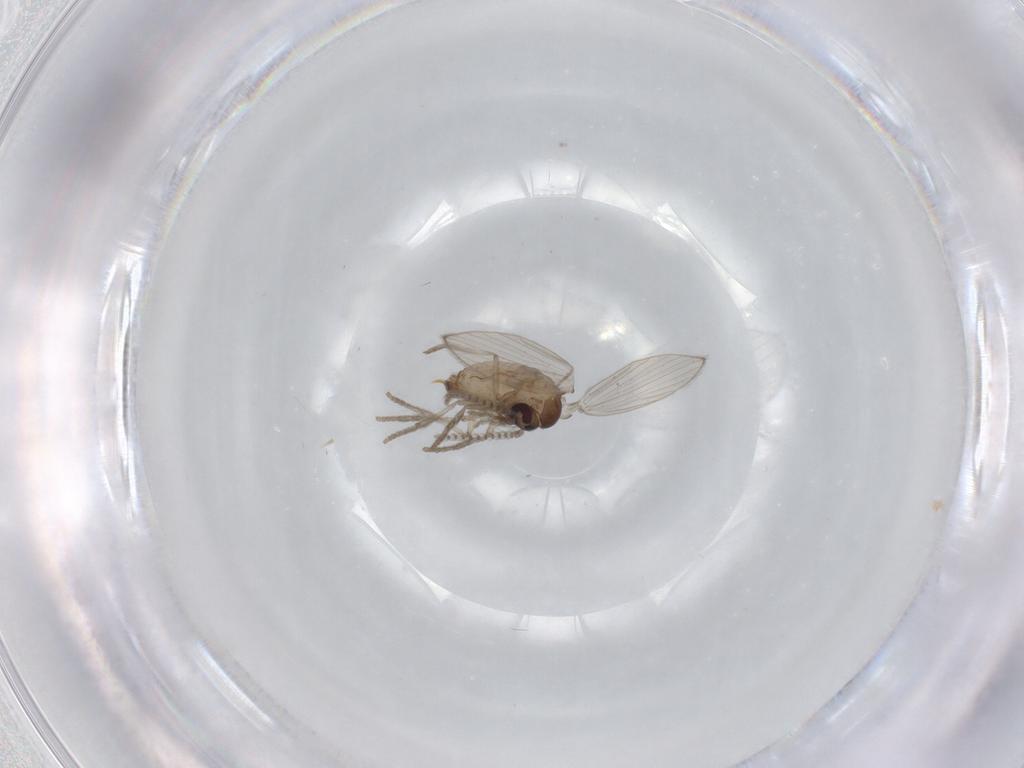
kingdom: Animalia
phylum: Arthropoda
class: Insecta
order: Diptera
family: Psychodidae
